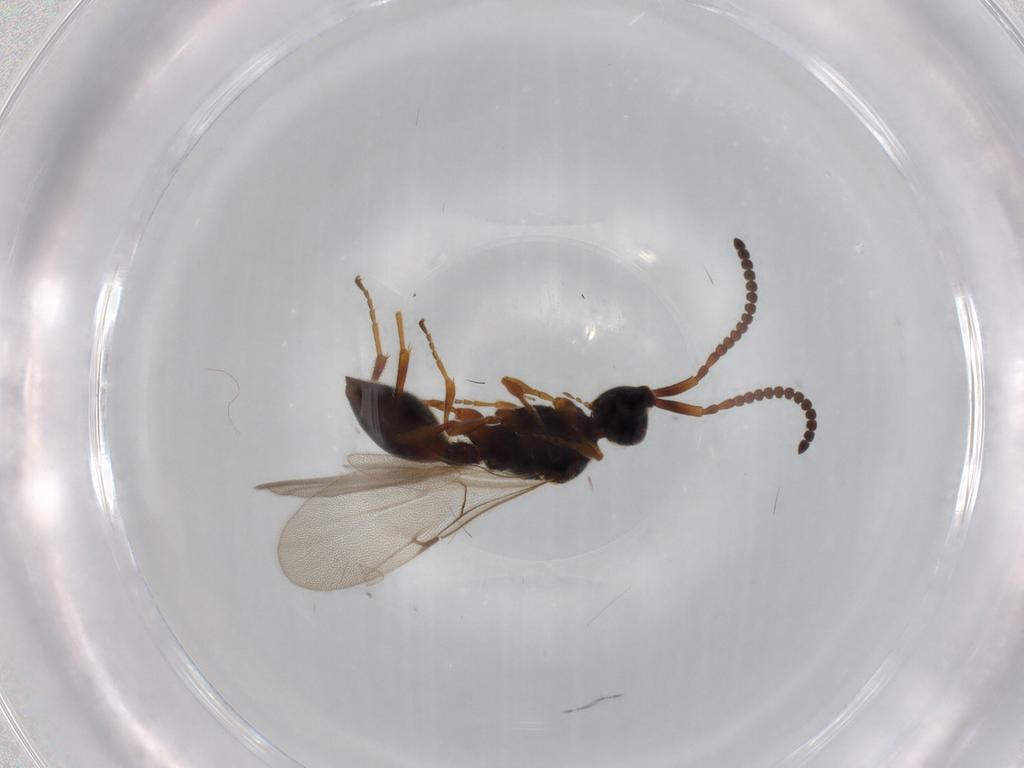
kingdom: Animalia
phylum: Arthropoda
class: Insecta
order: Hymenoptera
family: Diapriidae
